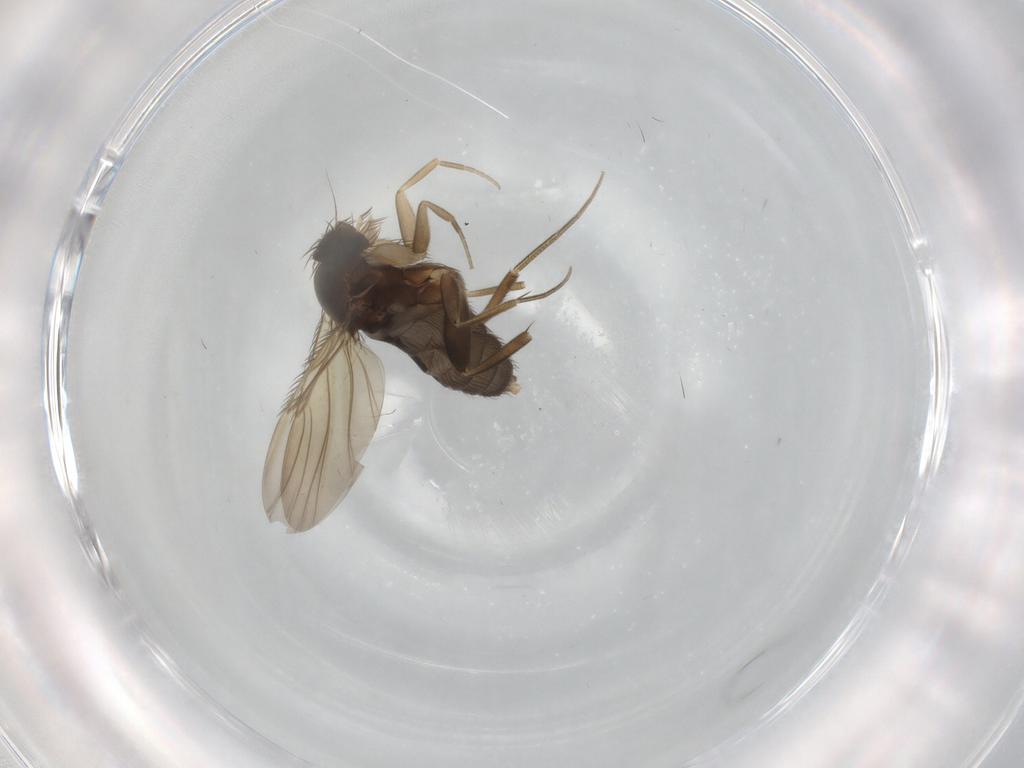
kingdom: Animalia
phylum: Arthropoda
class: Insecta
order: Diptera
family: Phoridae
